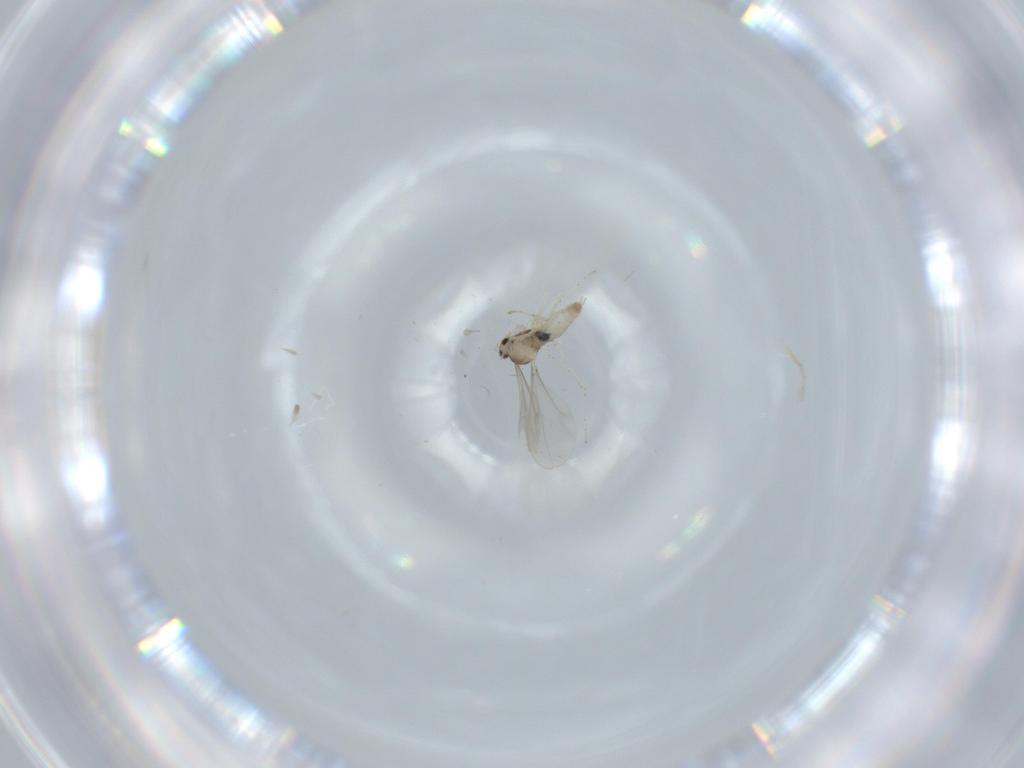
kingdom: Animalia
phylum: Arthropoda
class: Insecta
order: Diptera
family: Cecidomyiidae
